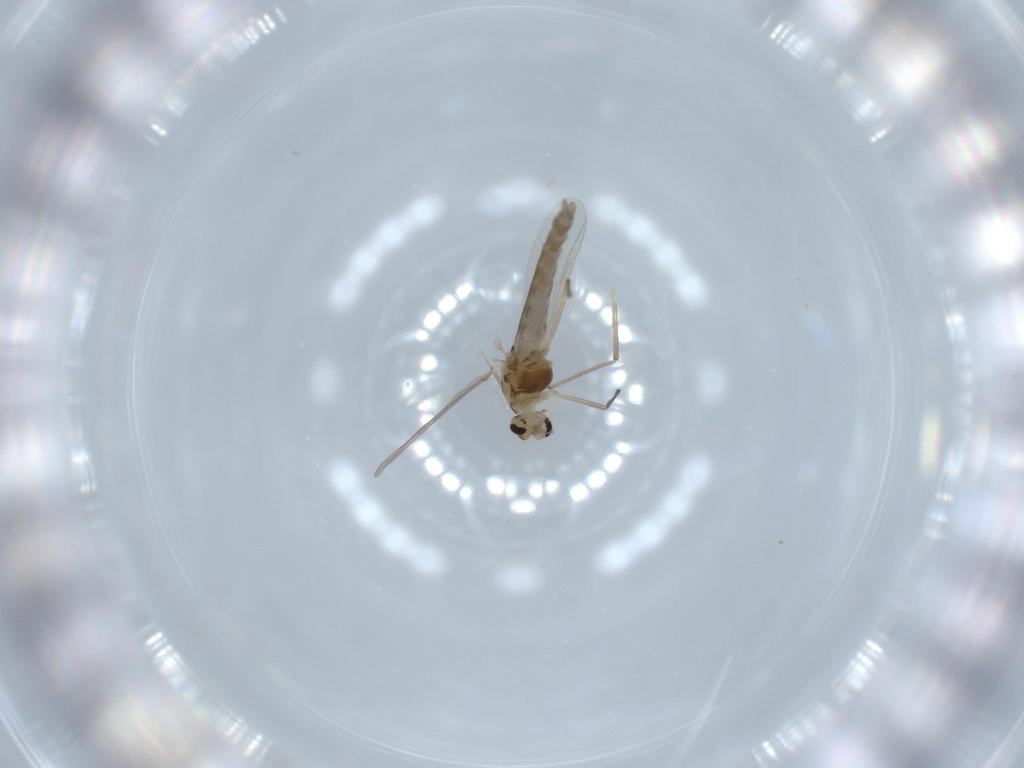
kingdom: Animalia
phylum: Arthropoda
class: Insecta
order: Diptera
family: Chironomidae
